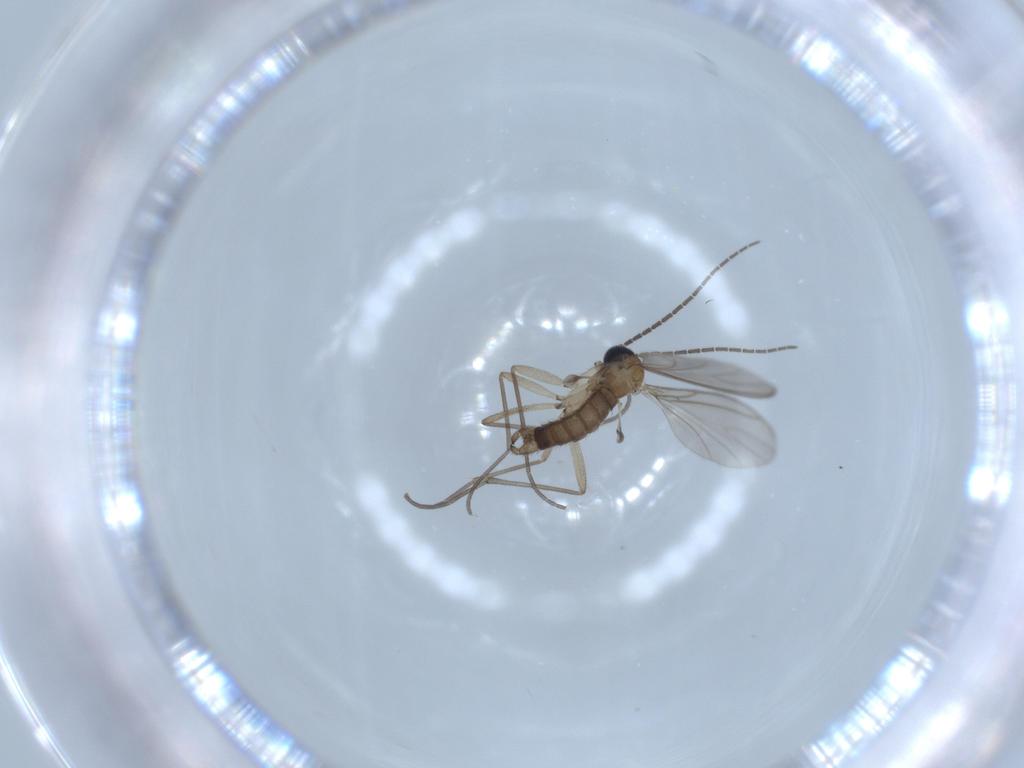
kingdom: Animalia
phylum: Arthropoda
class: Insecta
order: Diptera
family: Sciaridae
